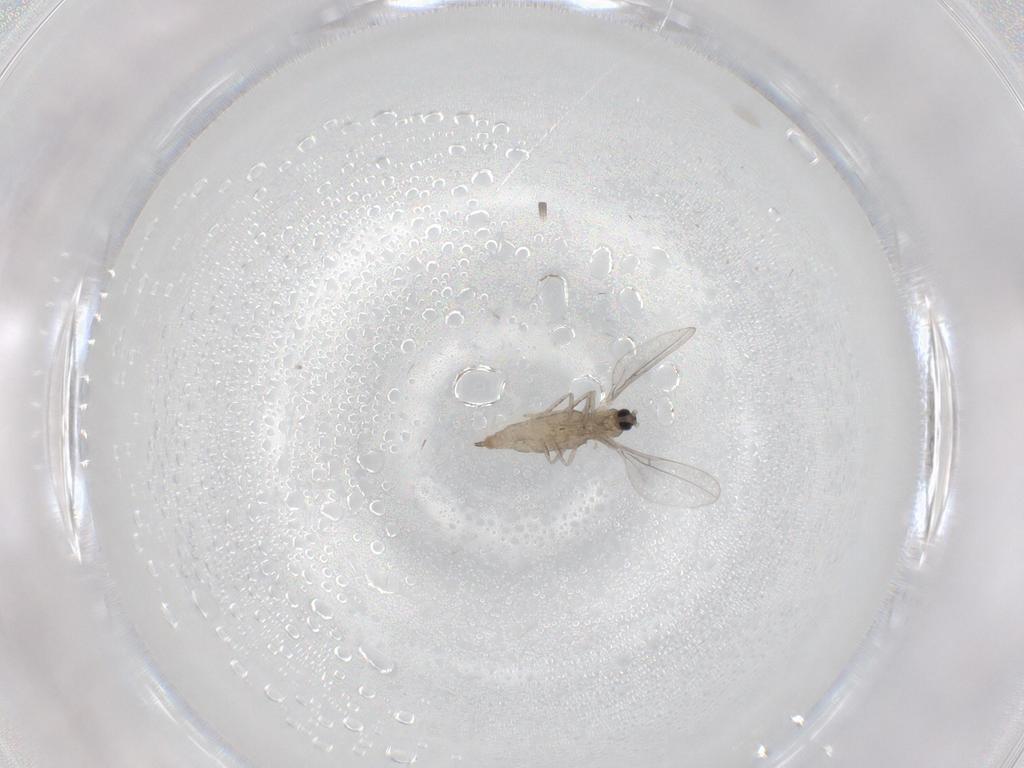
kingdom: Animalia
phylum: Arthropoda
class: Insecta
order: Diptera
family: Cecidomyiidae
